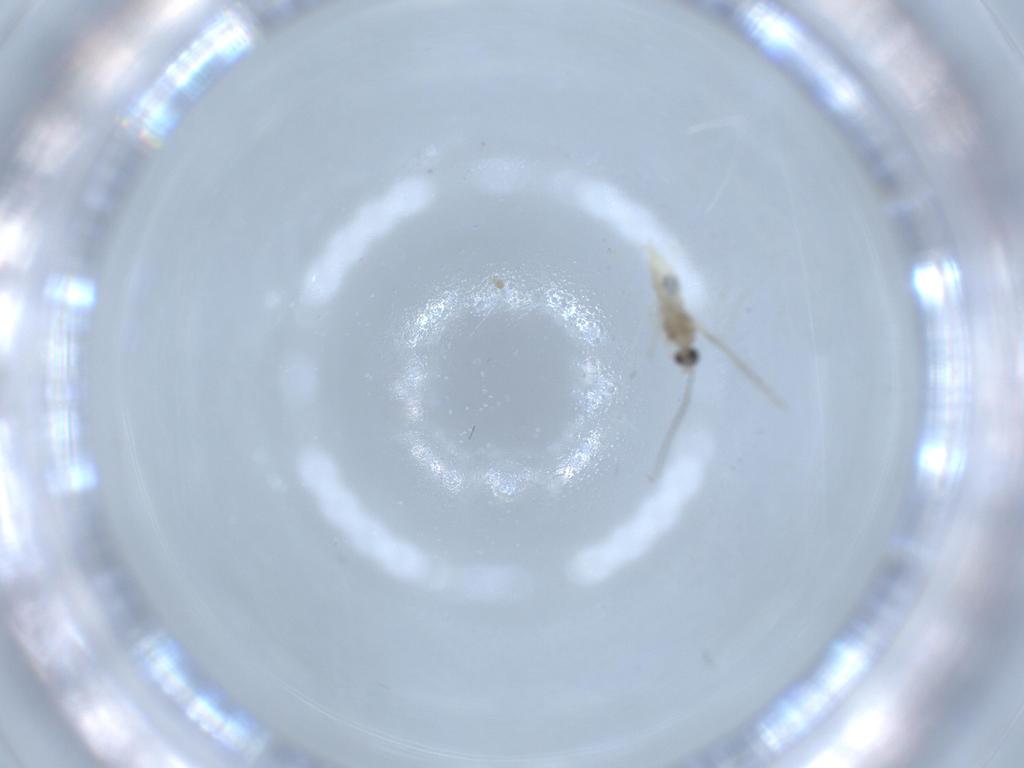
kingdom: Animalia
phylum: Arthropoda
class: Insecta
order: Diptera
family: Cecidomyiidae
